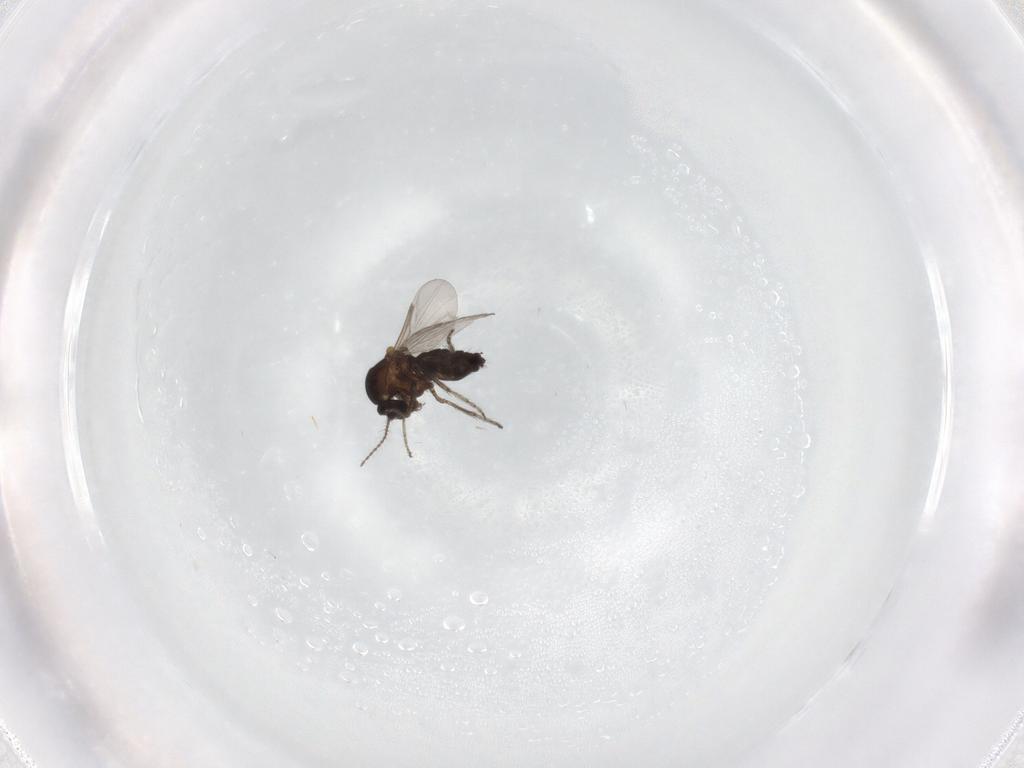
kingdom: Animalia
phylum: Arthropoda
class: Insecta
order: Diptera
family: Ceratopogonidae
